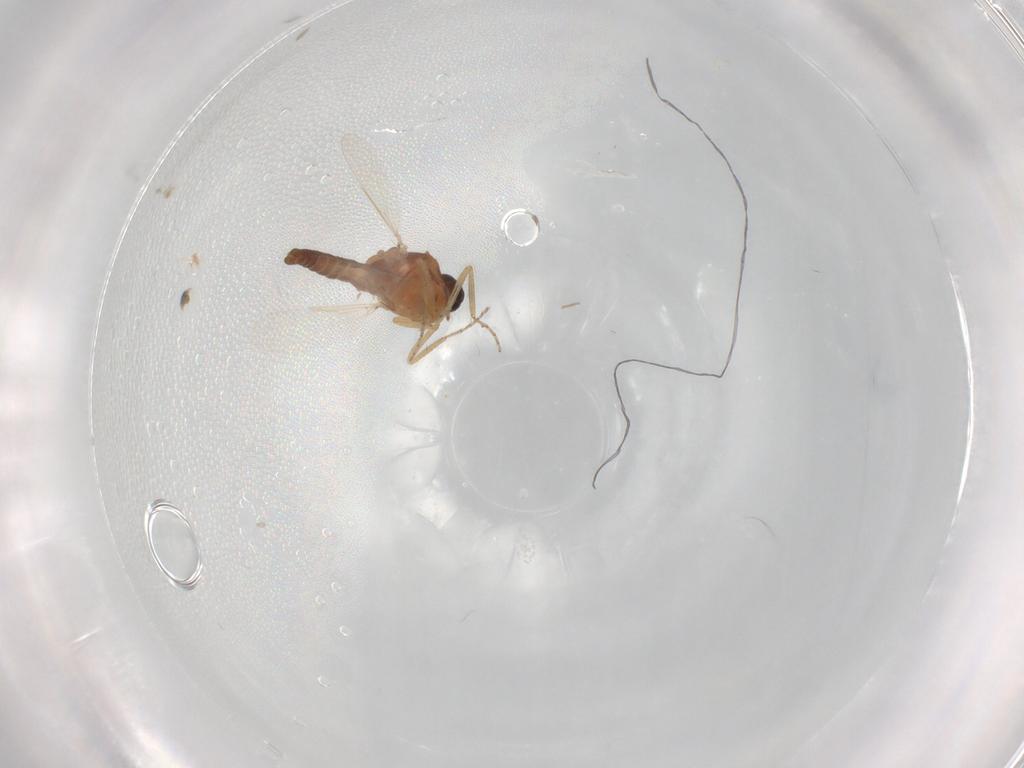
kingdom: Animalia
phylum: Arthropoda
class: Insecta
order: Diptera
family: Ceratopogonidae
